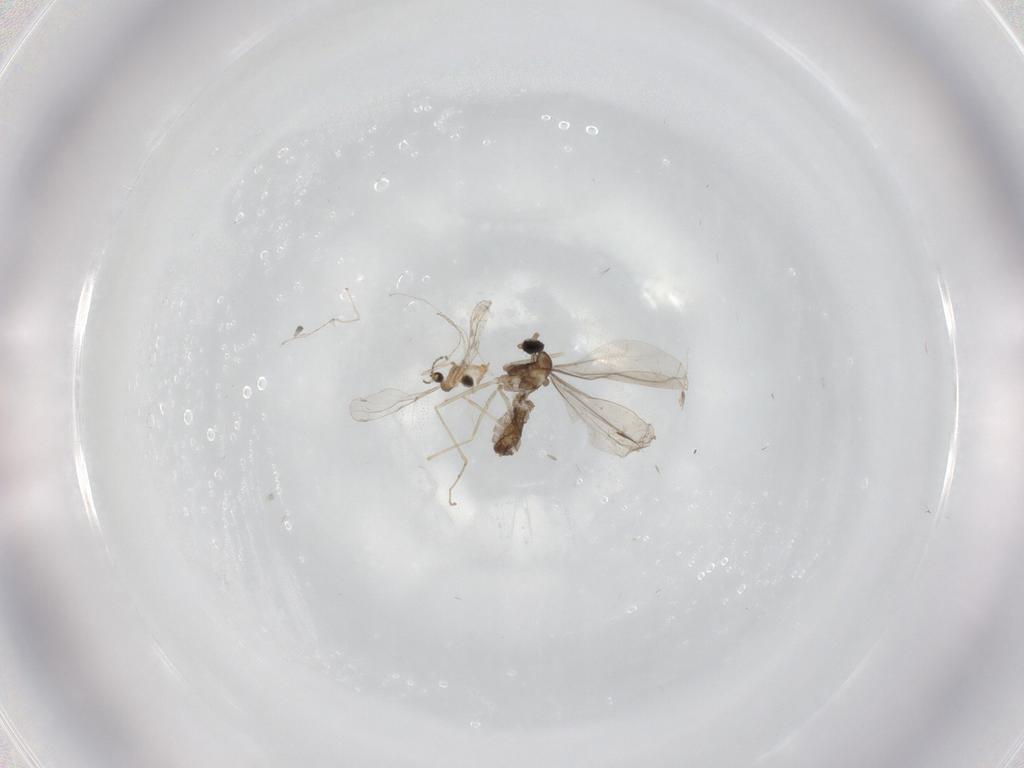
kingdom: Animalia
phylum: Arthropoda
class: Insecta
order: Diptera
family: Cecidomyiidae
